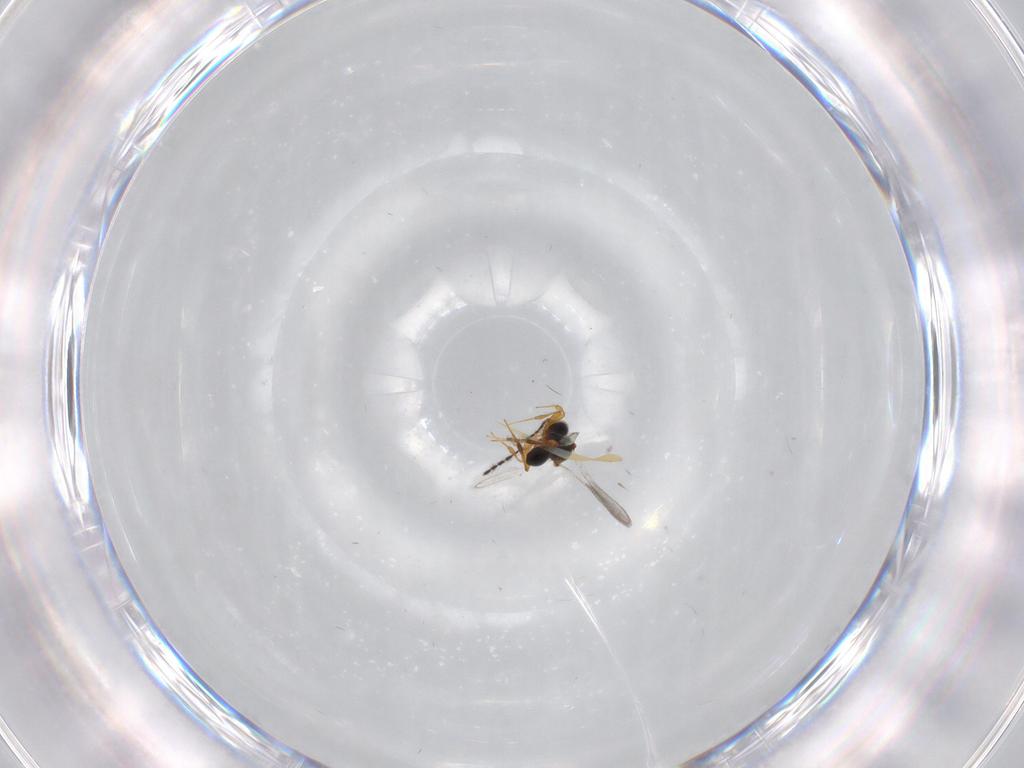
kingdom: Animalia
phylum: Arthropoda
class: Insecta
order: Hymenoptera
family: Platygastridae
